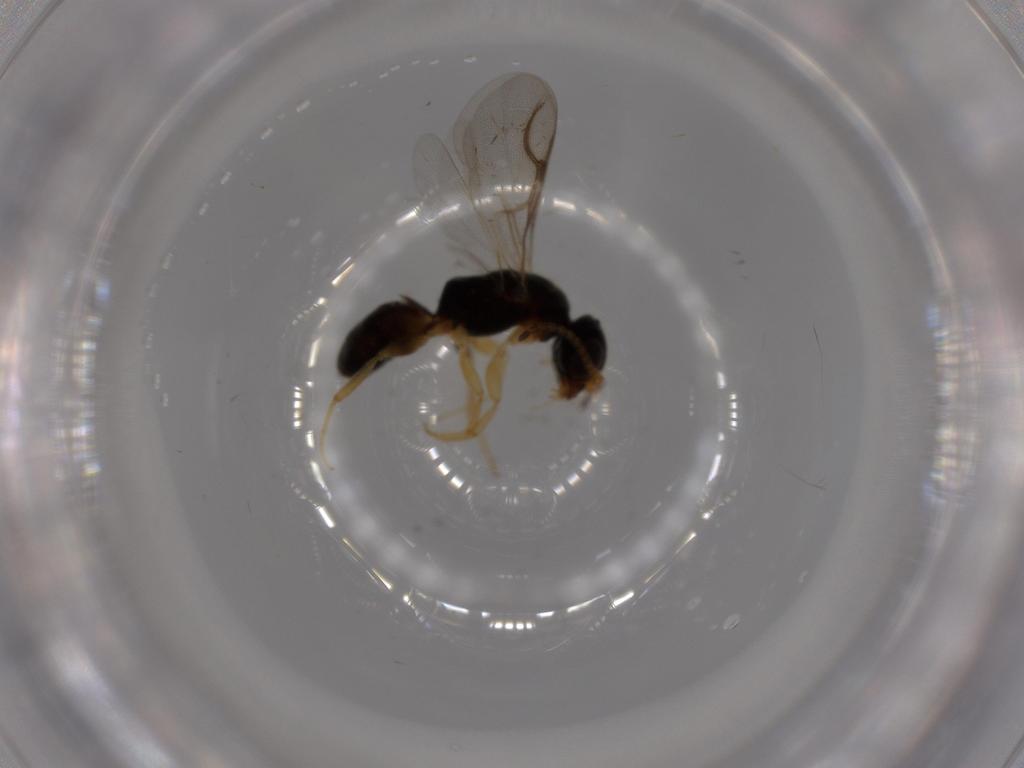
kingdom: Animalia
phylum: Arthropoda
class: Insecta
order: Hymenoptera
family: Bethylidae
